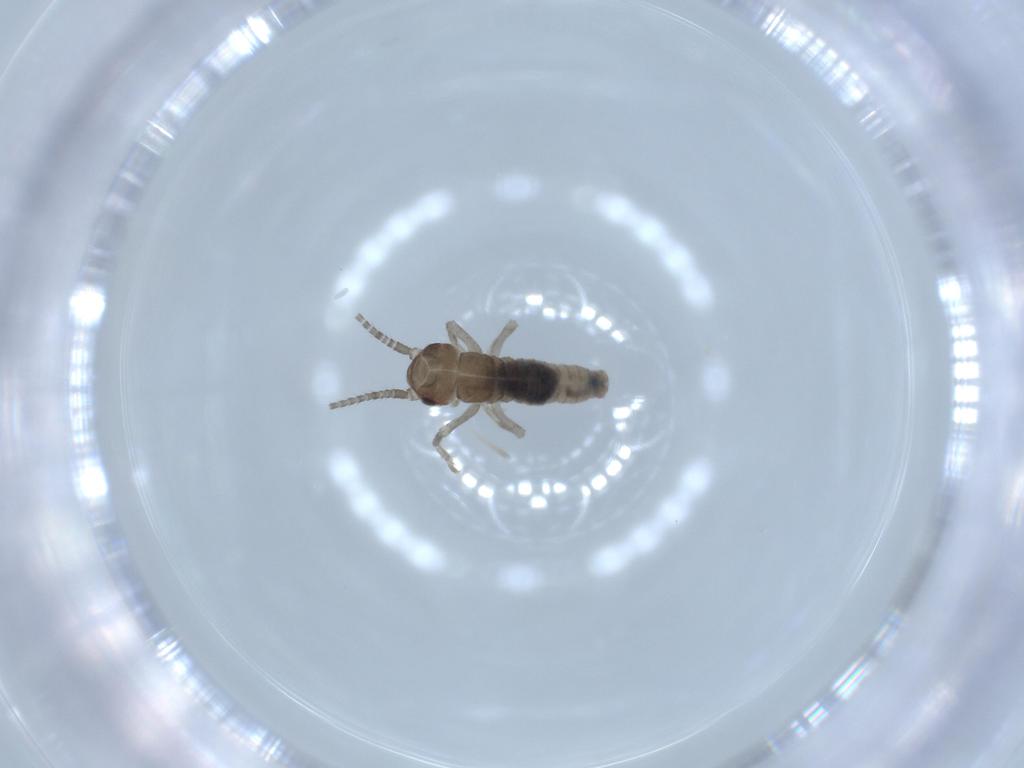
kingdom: Animalia
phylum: Arthropoda
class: Insecta
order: Orthoptera
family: Gryllidae
